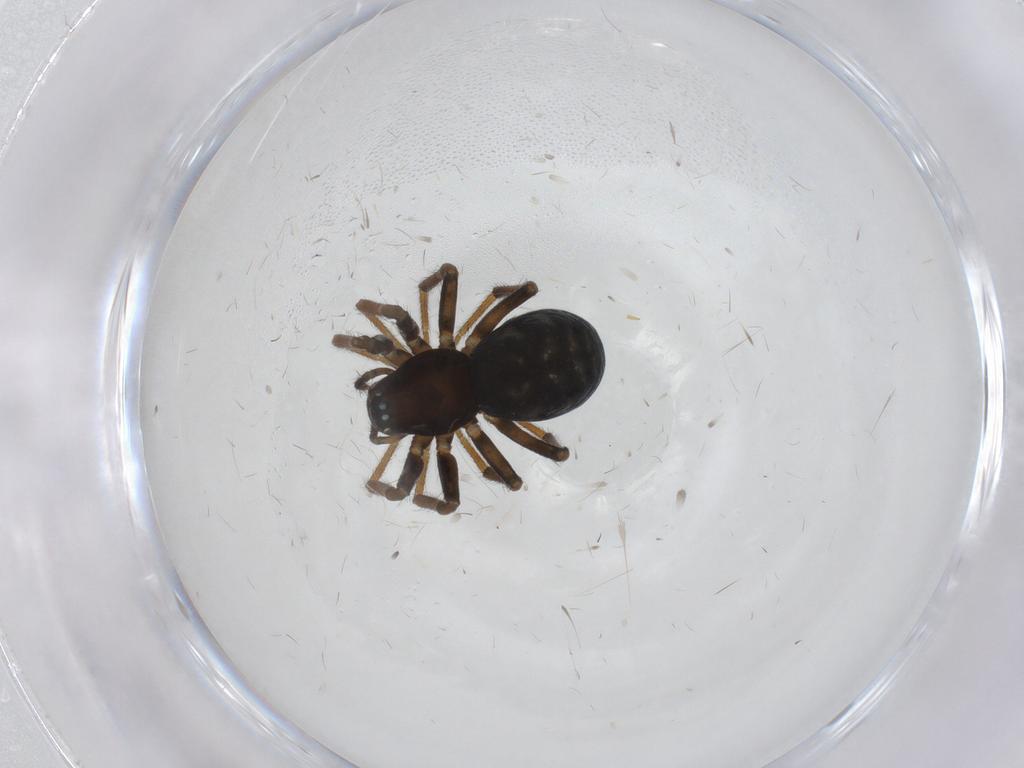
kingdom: Animalia
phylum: Arthropoda
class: Arachnida
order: Araneae
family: Theridiidae
